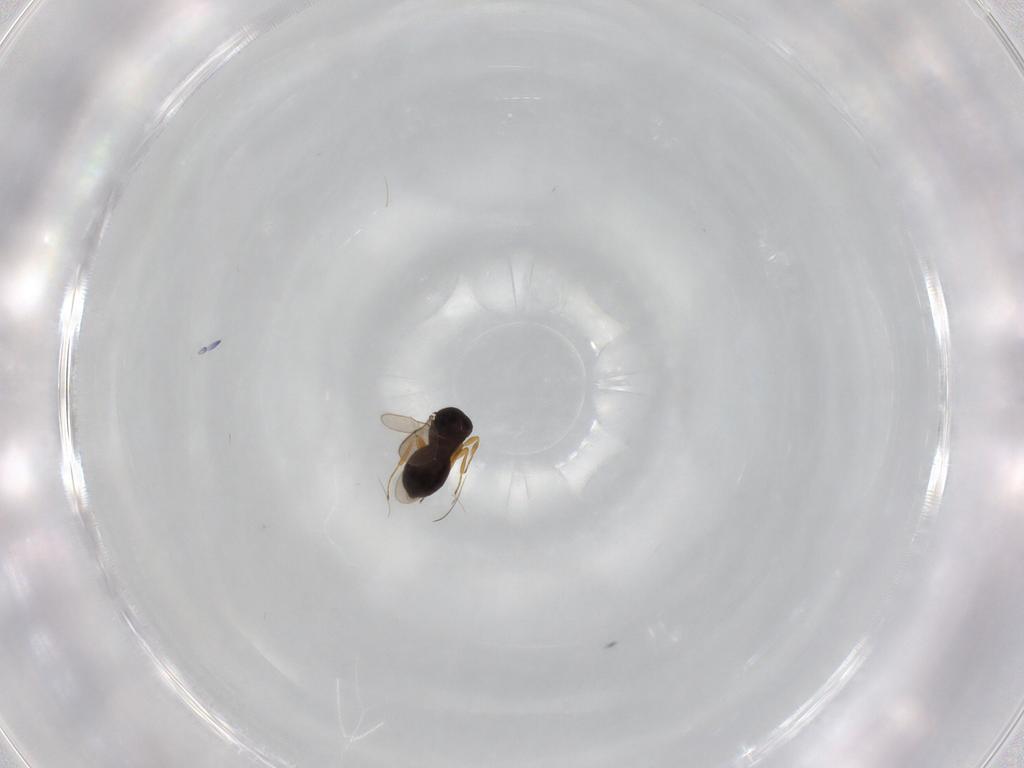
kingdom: Animalia
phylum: Arthropoda
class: Insecta
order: Hymenoptera
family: Scelionidae
